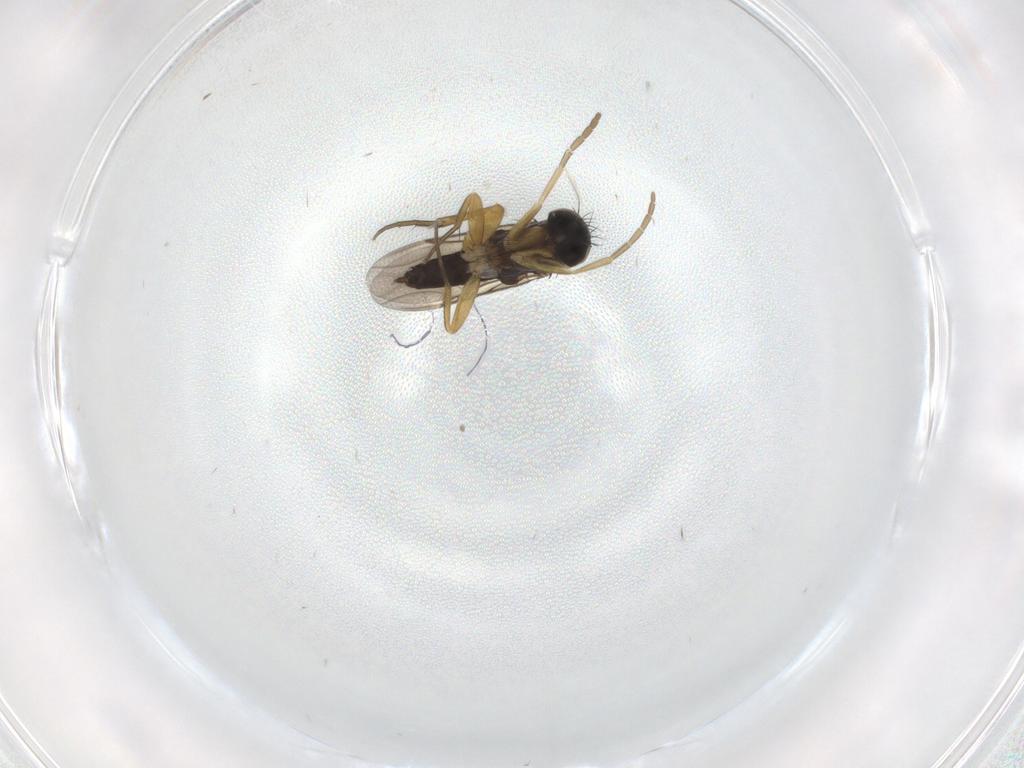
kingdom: Animalia
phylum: Arthropoda
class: Insecta
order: Diptera
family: Phoridae
